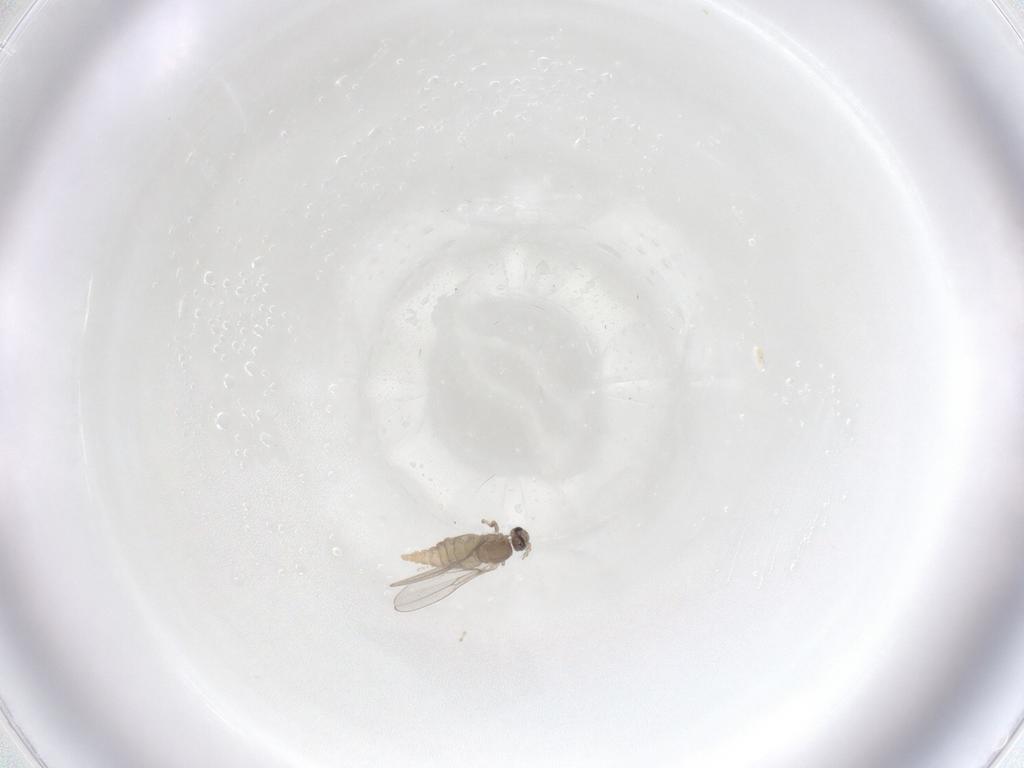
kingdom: Animalia
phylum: Arthropoda
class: Insecta
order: Diptera
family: Cecidomyiidae
